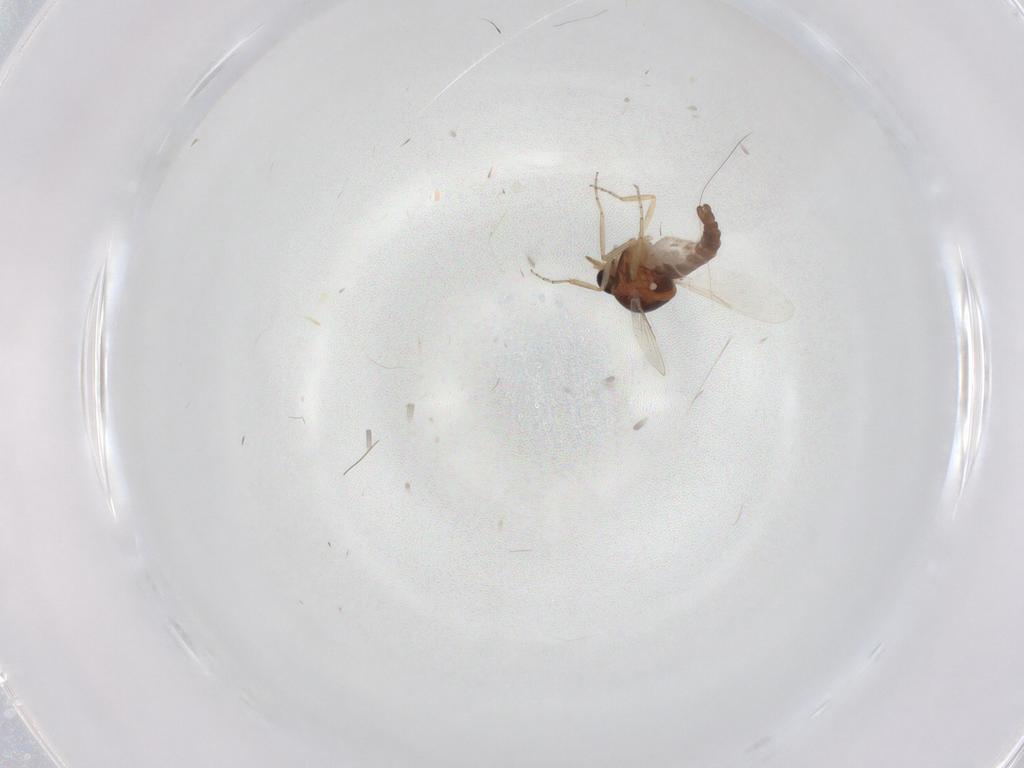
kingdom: Animalia
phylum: Arthropoda
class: Insecta
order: Diptera
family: Ceratopogonidae
